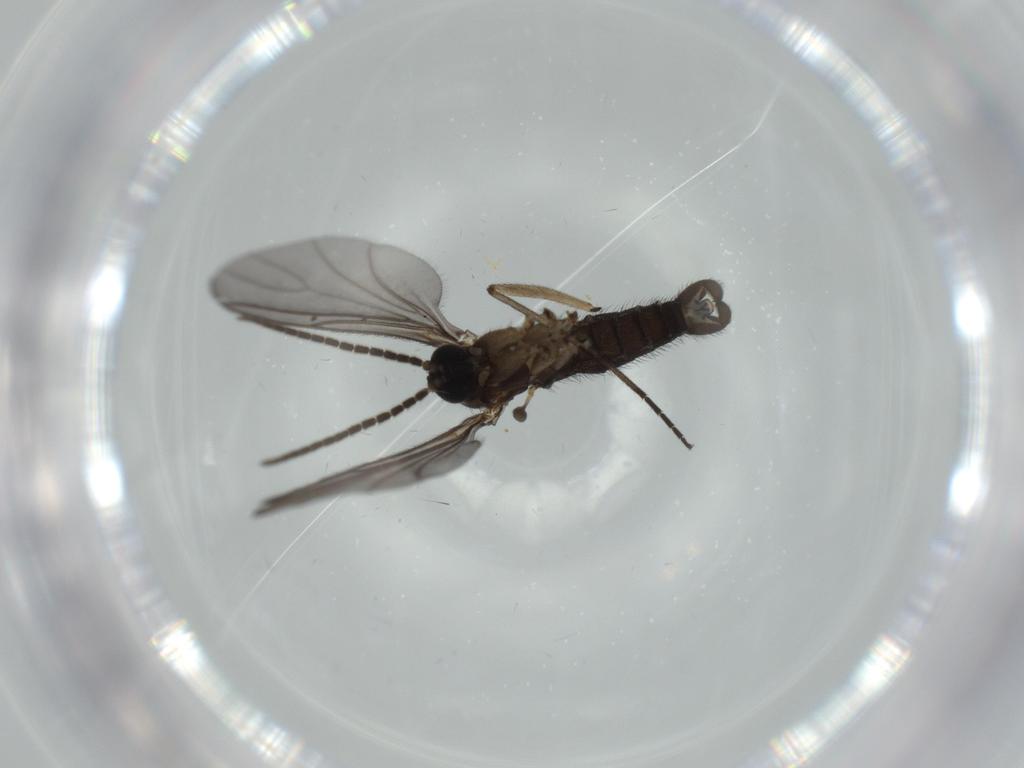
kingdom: Animalia
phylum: Arthropoda
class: Insecta
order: Diptera
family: Sciaridae
